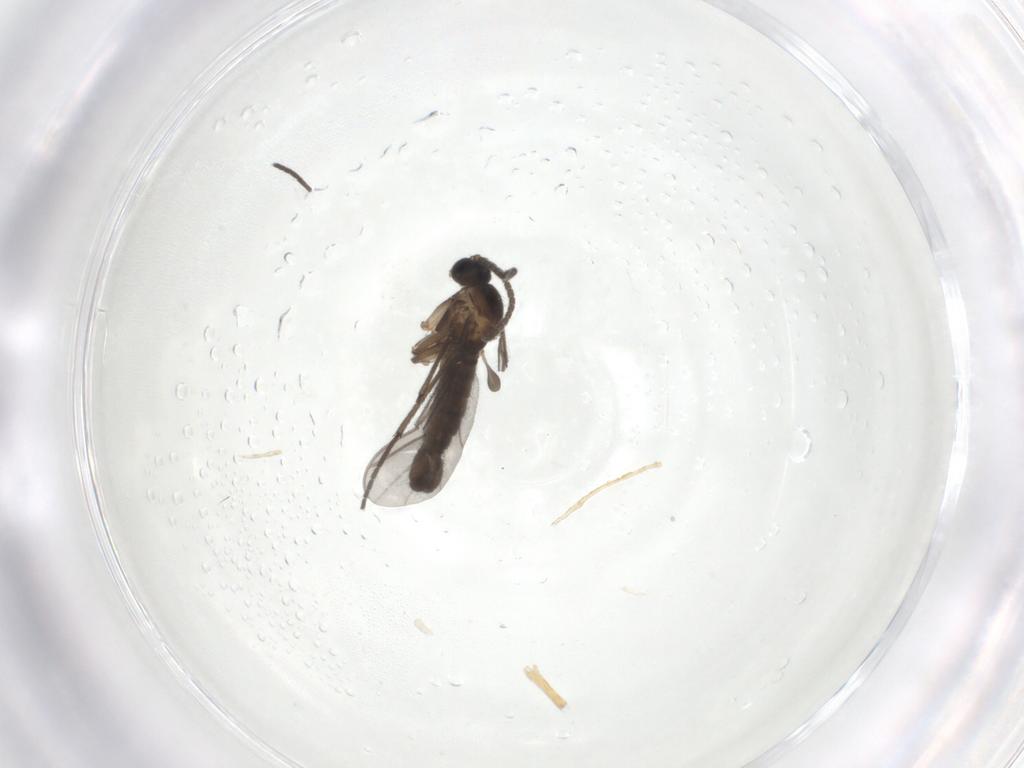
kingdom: Animalia
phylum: Arthropoda
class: Insecta
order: Diptera
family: Sciaridae
